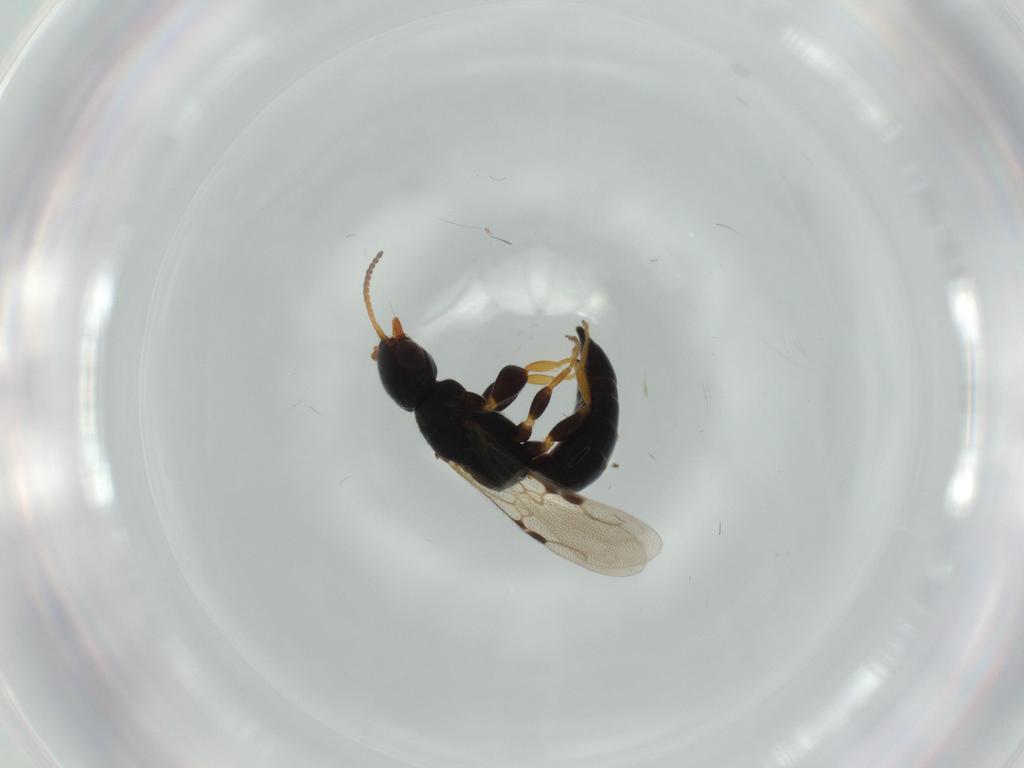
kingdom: Animalia
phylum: Arthropoda
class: Insecta
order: Hymenoptera
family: Bethylidae
